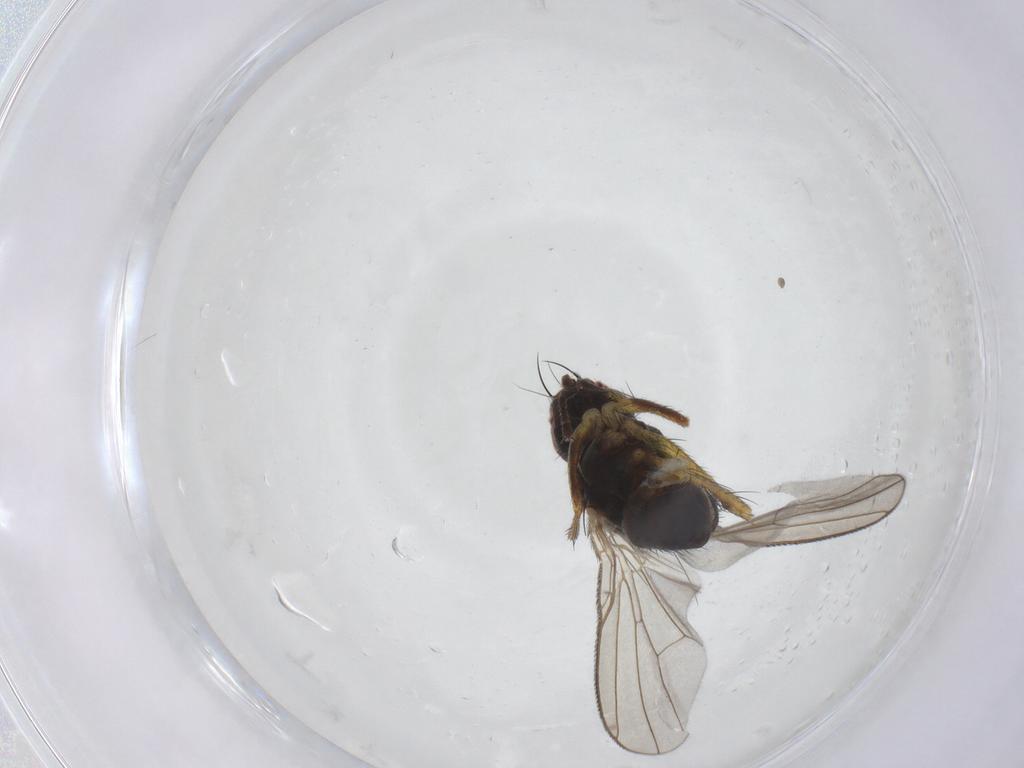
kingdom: Animalia
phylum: Arthropoda
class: Insecta
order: Diptera
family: Muscidae
